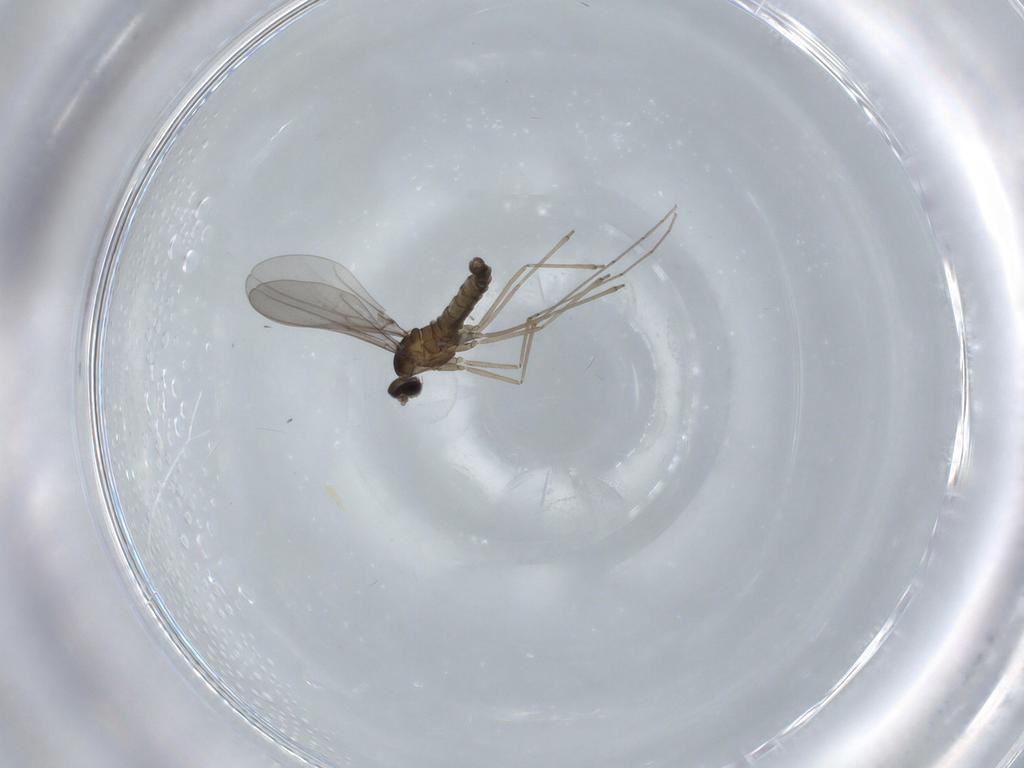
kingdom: Animalia
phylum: Arthropoda
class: Insecta
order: Diptera
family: Cecidomyiidae
